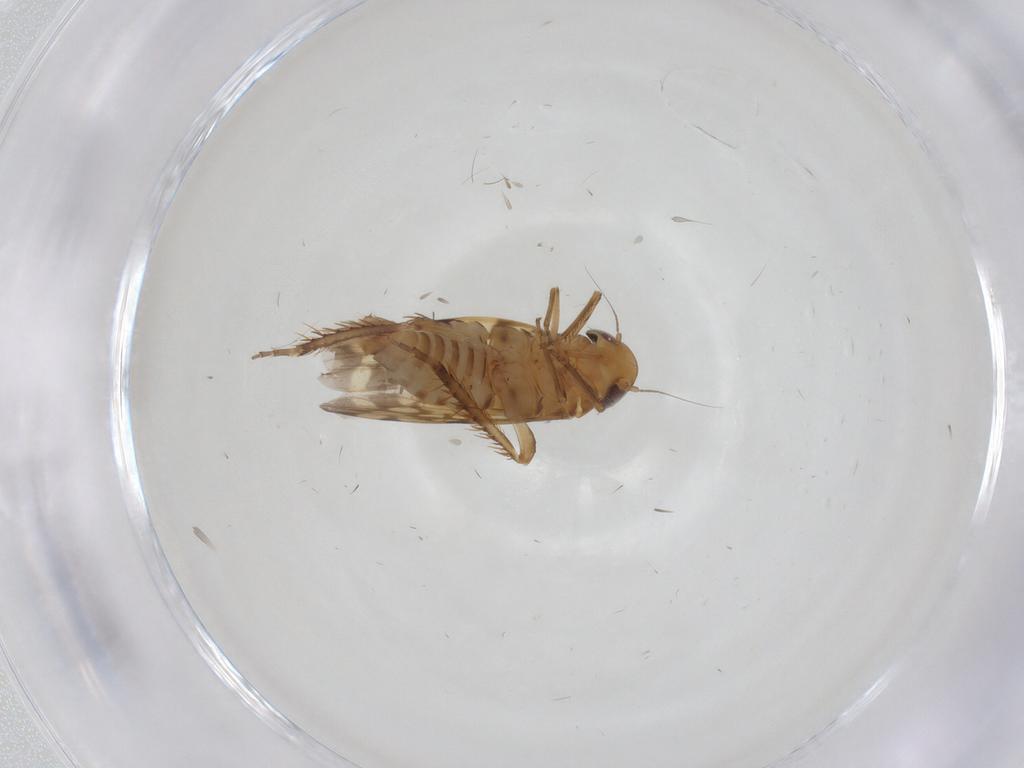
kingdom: Animalia
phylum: Arthropoda
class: Insecta
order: Hemiptera
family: Cicadellidae
